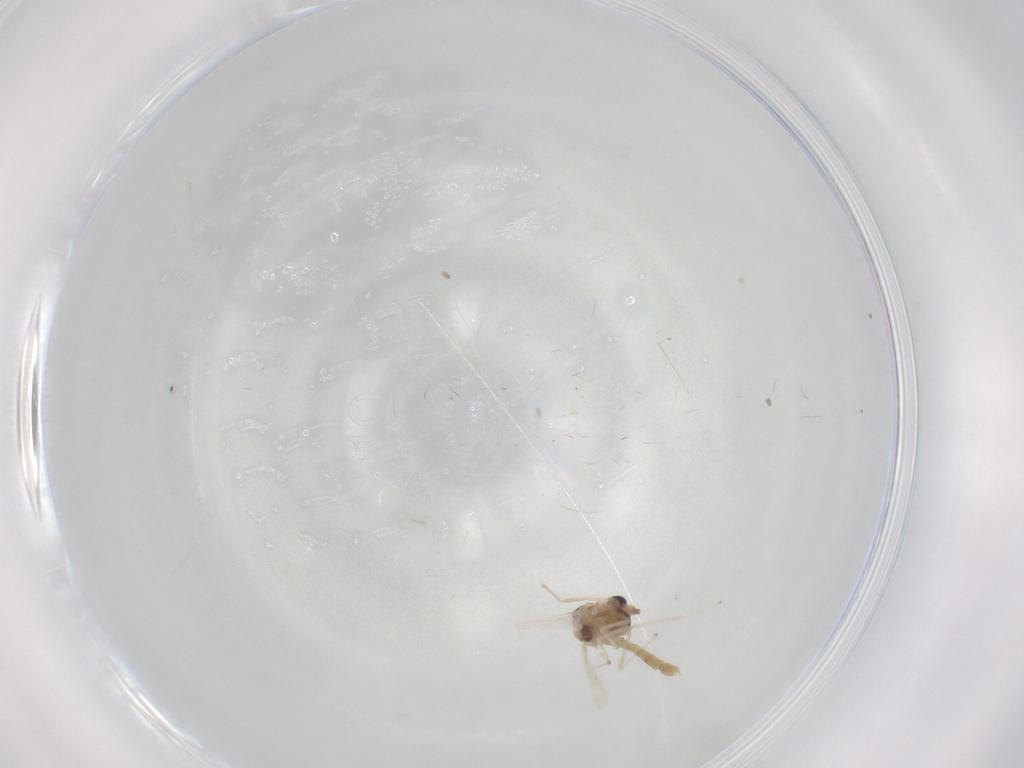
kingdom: Animalia
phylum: Arthropoda
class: Insecta
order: Diptera
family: Chironomidae
